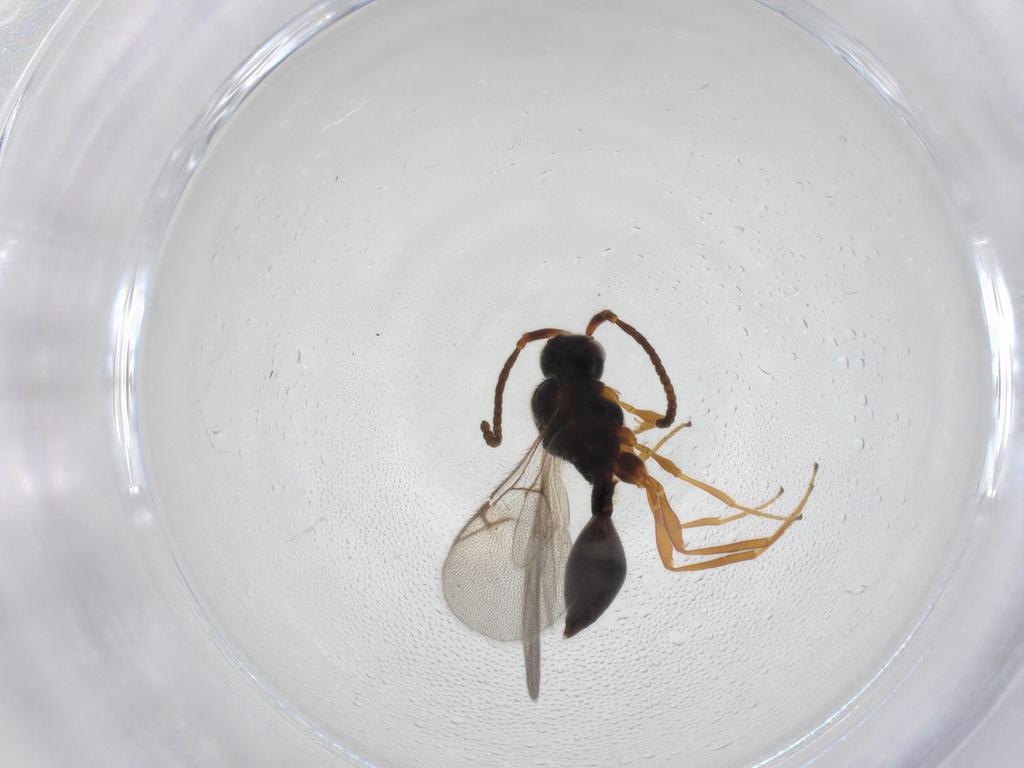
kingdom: Animalia
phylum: Arthropoda
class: Insecta
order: Hymenoptera
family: Diapriidae
